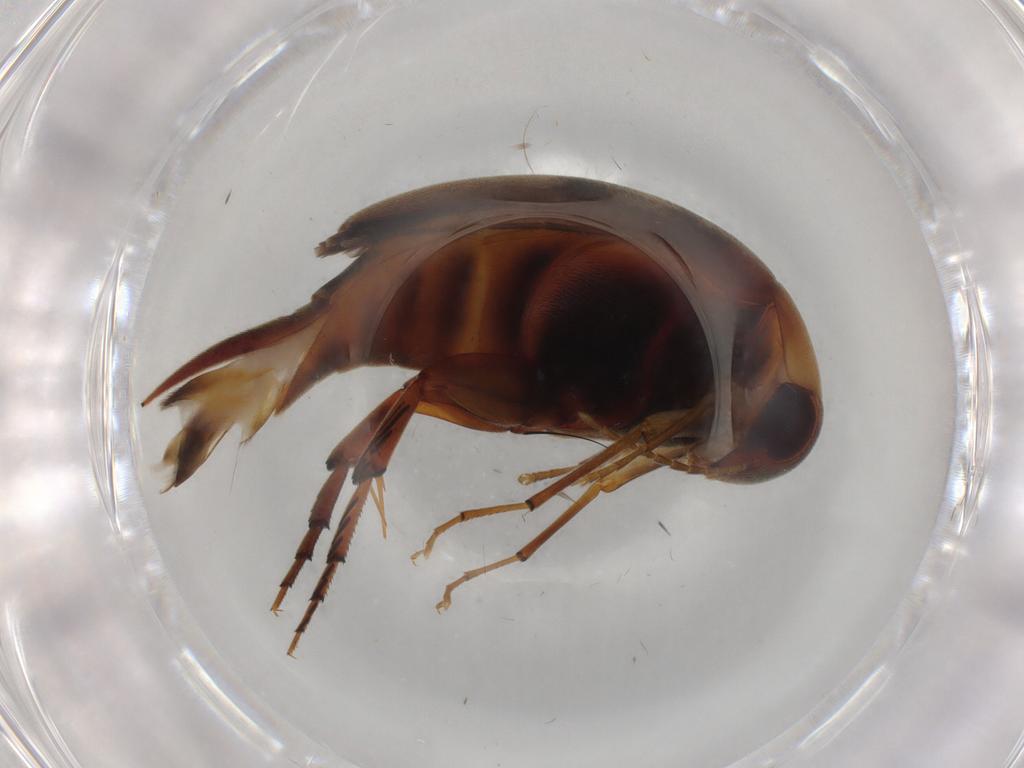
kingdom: Animalia
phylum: Arthropoda
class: Insecta
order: Coleoptera
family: Mordellidae
